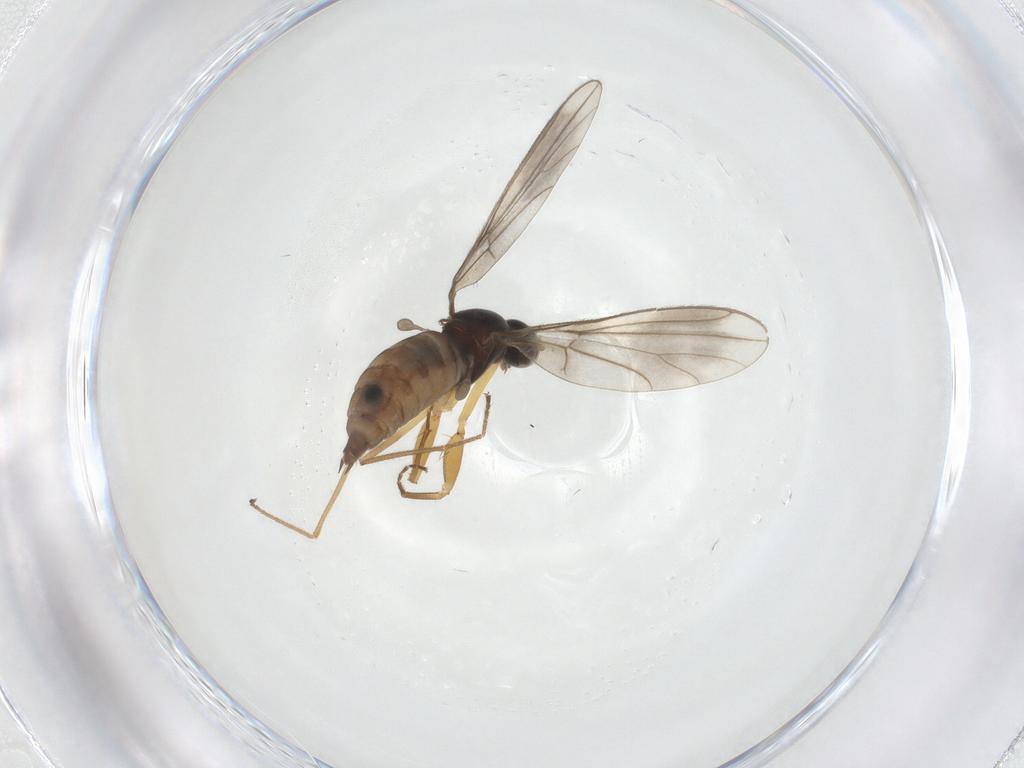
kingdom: Animalia
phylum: Arthropoda
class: Insecta
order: Diptera
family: Empididae
